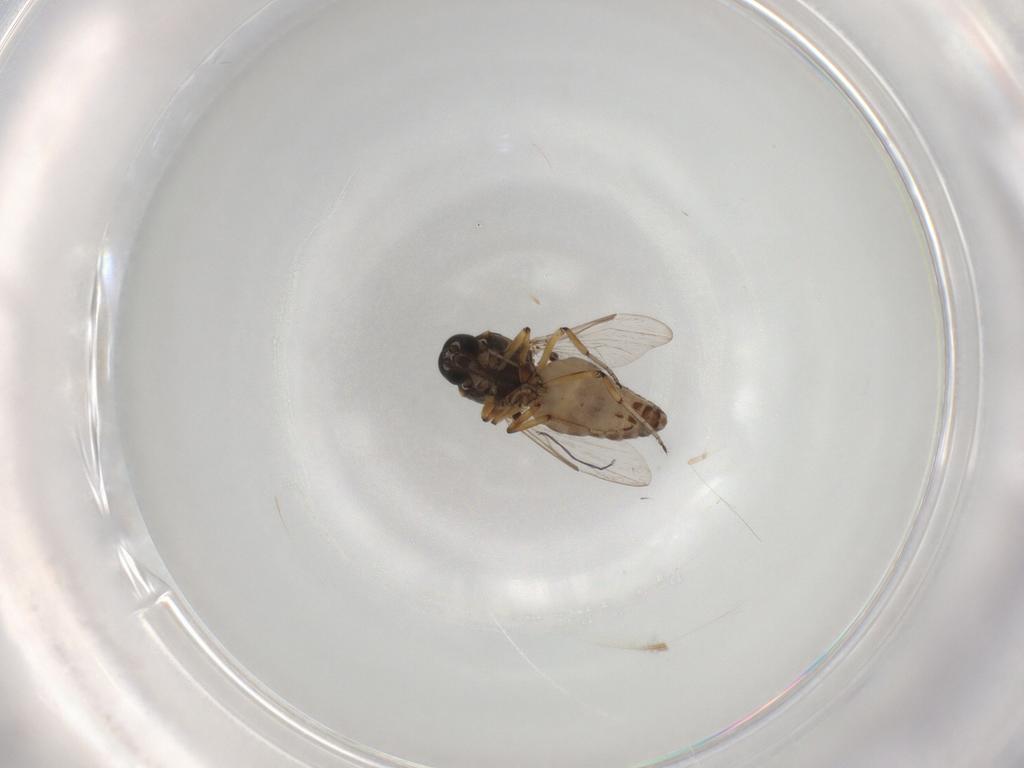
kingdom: Animalia
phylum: Arthropoda
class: Insecta
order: Diptera
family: Ceratopogonidae
